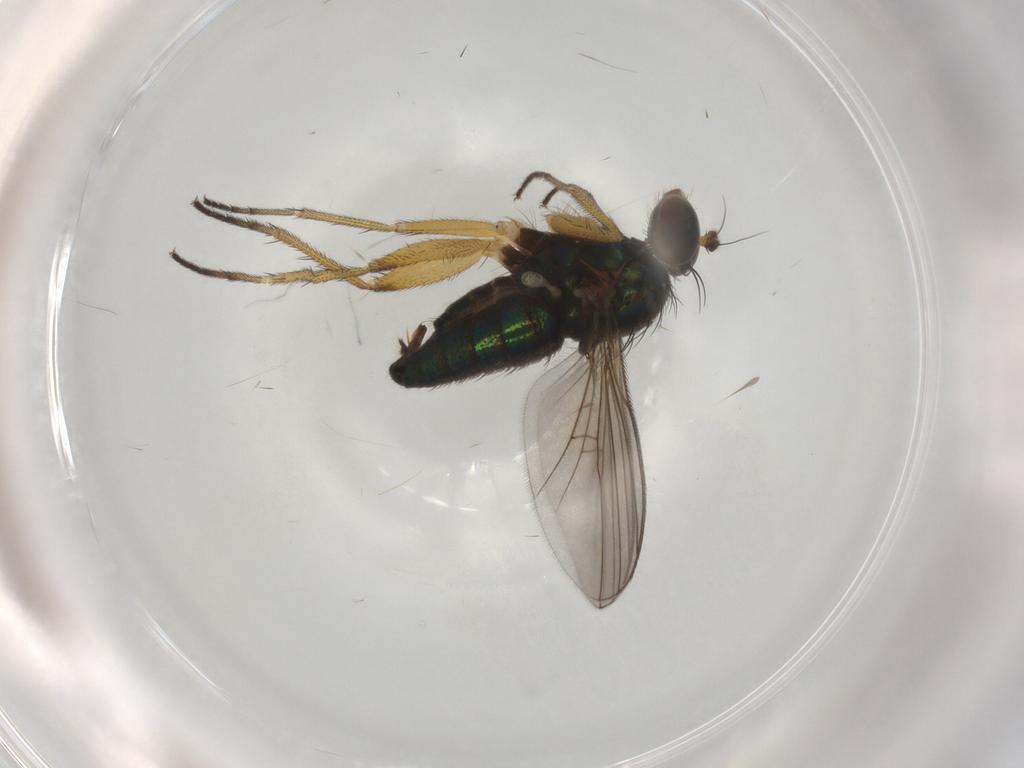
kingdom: Animalia
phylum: Arthropoda
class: Insecta
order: Diptera
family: Dolichopodidae
